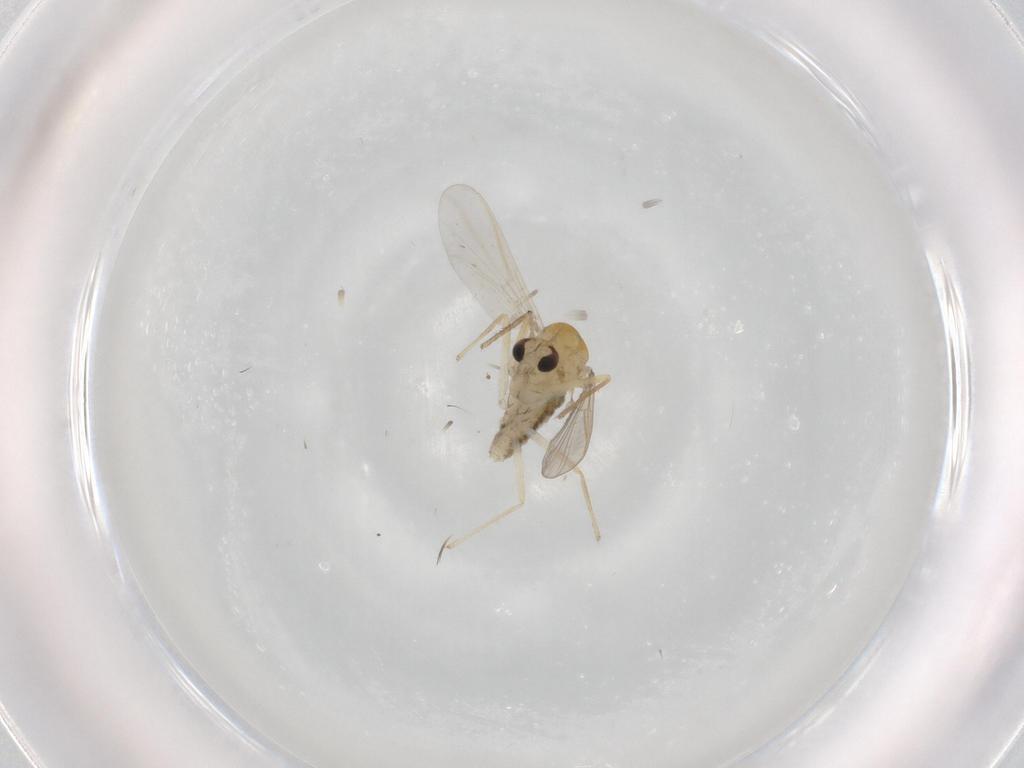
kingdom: Animalia
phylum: Arthropoda
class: Insecta
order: Diptera
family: Chironomidae
